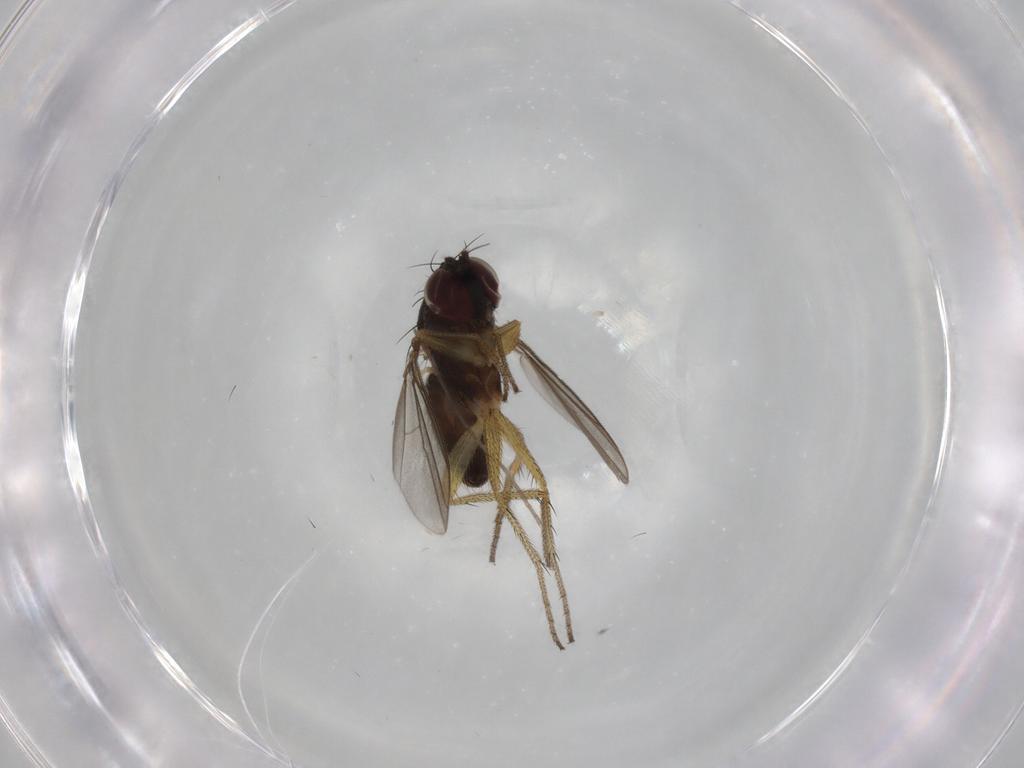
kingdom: Animalia
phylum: Arthropoda
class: Insecta
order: Diptera
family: Dolichopodidae
